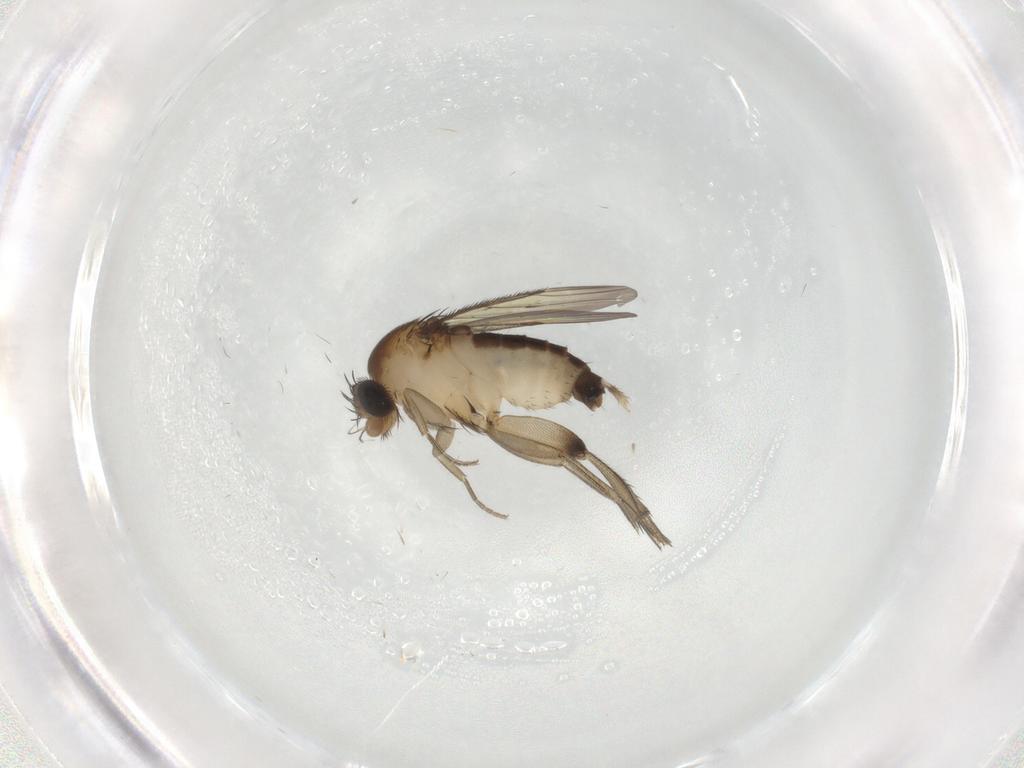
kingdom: Animalia
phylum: Arthropoda
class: Insecta
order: Diptera
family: Phoridae
